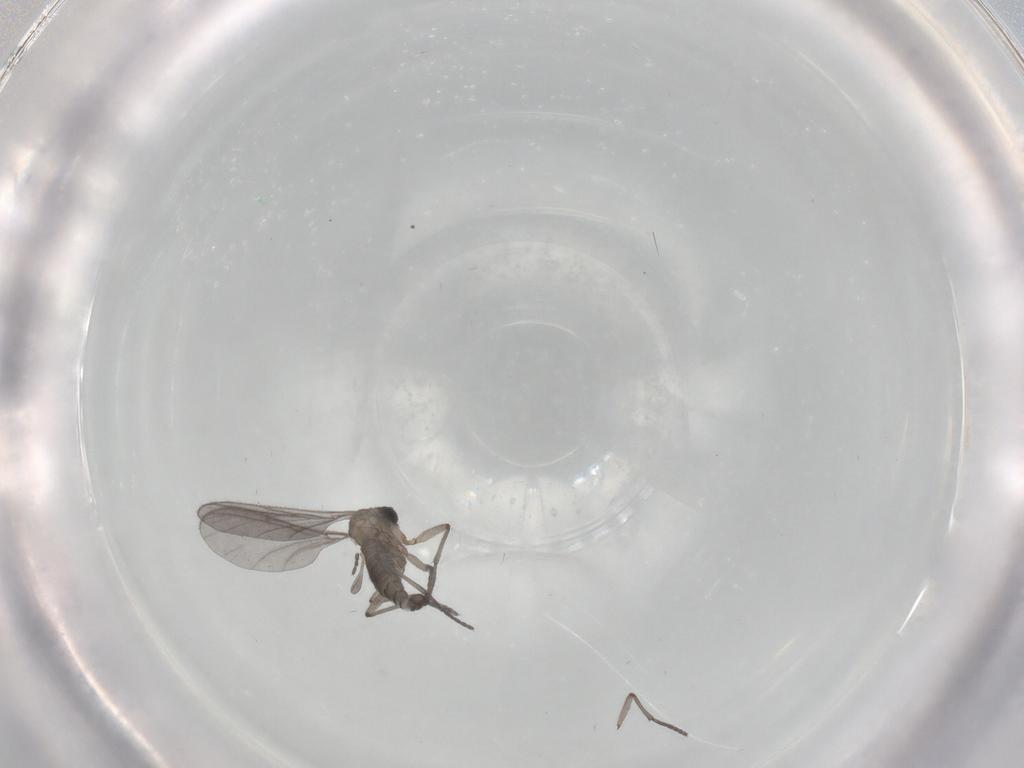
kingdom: Animalia
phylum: Arthropoda
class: Insecta
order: Diptera
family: Sciaridae
